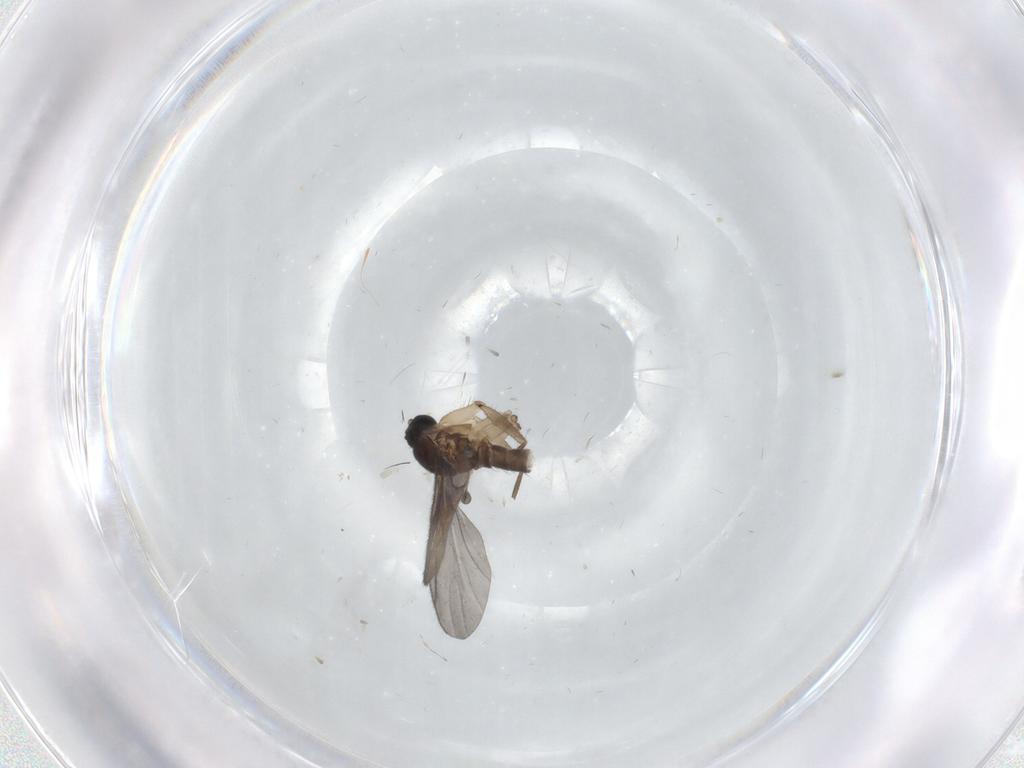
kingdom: Animalia
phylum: Arthropoda
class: Insecta
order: Diptera
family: Sciaridae
